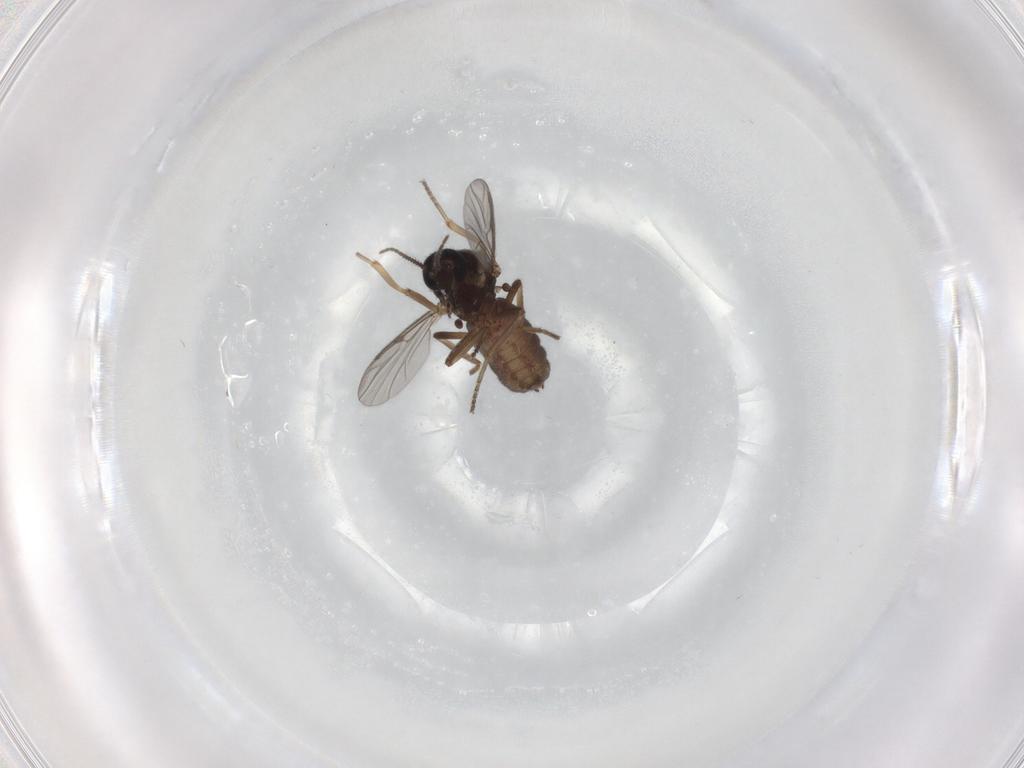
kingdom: Animalia
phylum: Arthropoda
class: Insecta
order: Diptera
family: Ceratopogonidae
